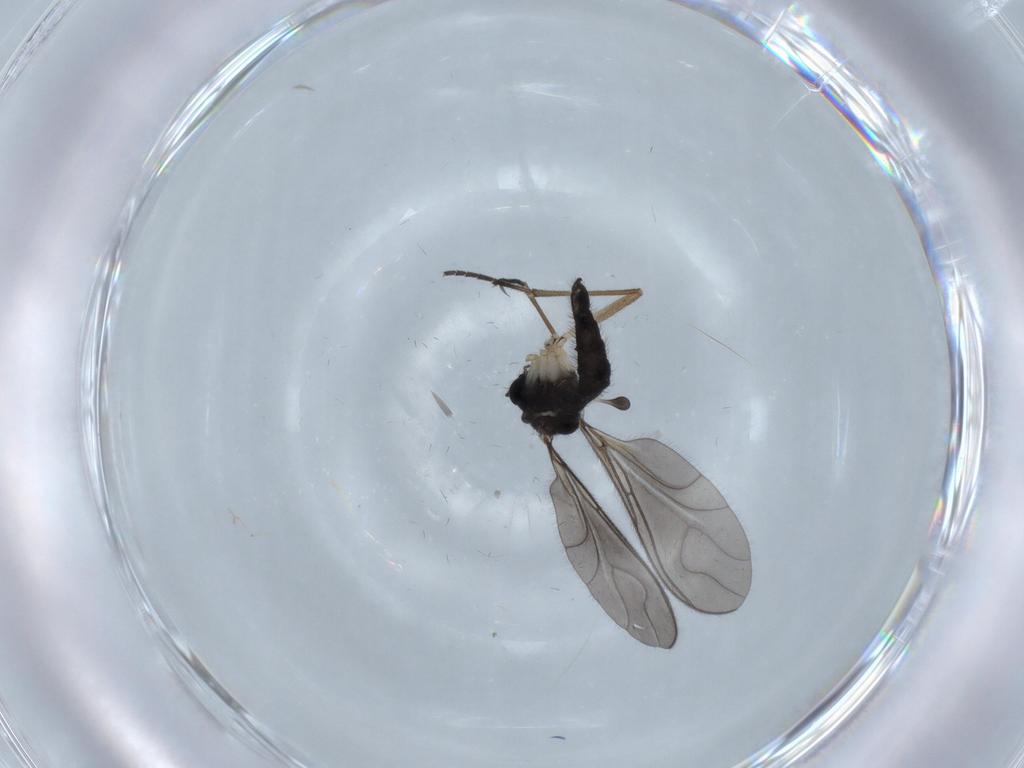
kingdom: Animalia
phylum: Arthropoda
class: Insecta
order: Diptera
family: Sciaridae
